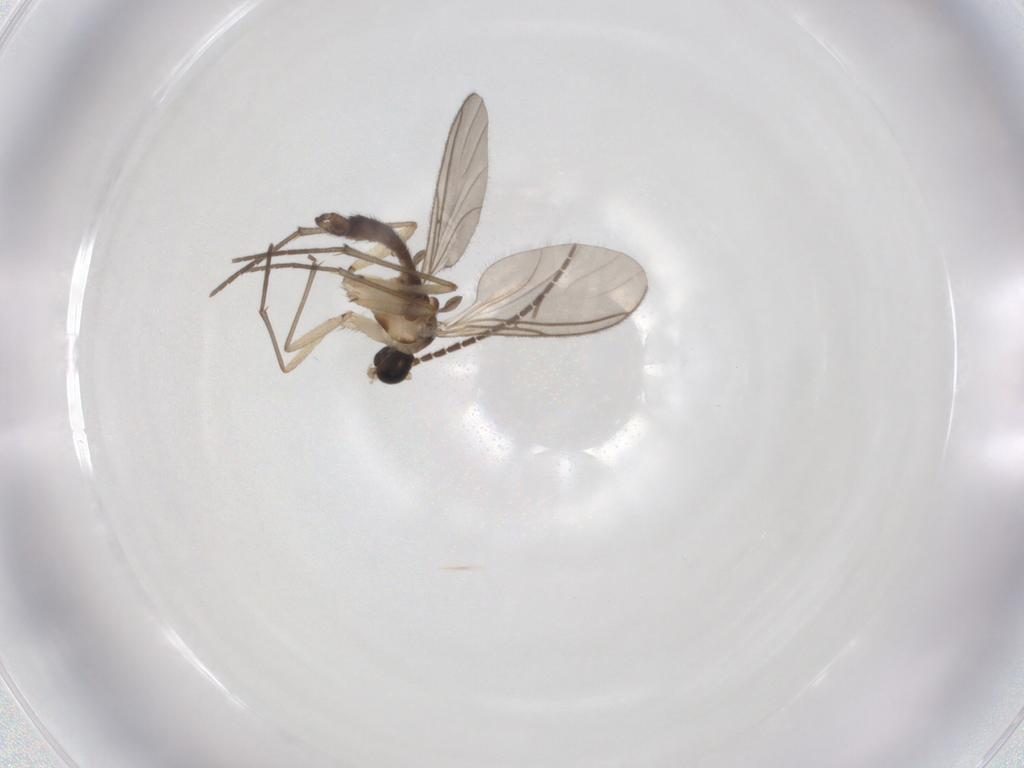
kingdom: Animalia
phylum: Arthropoda
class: Insecta
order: Diptera
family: Sciaridae
